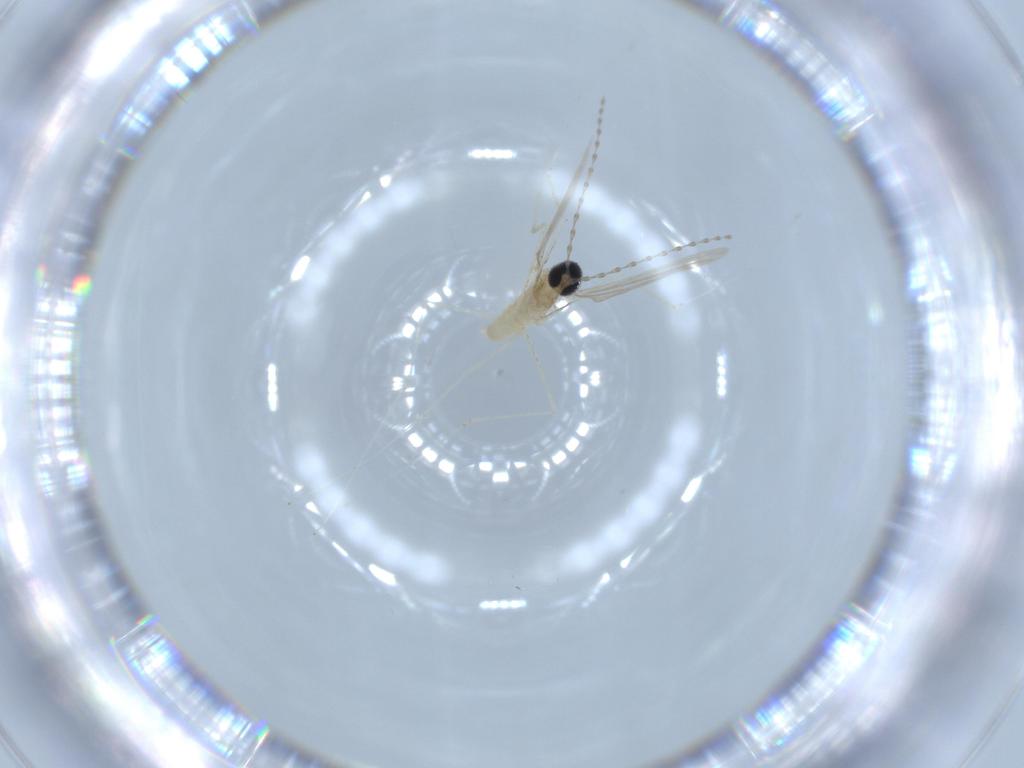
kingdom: Animalia
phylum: Arthropoda
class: Insecta
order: Diptera
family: Cecidomyiidae
